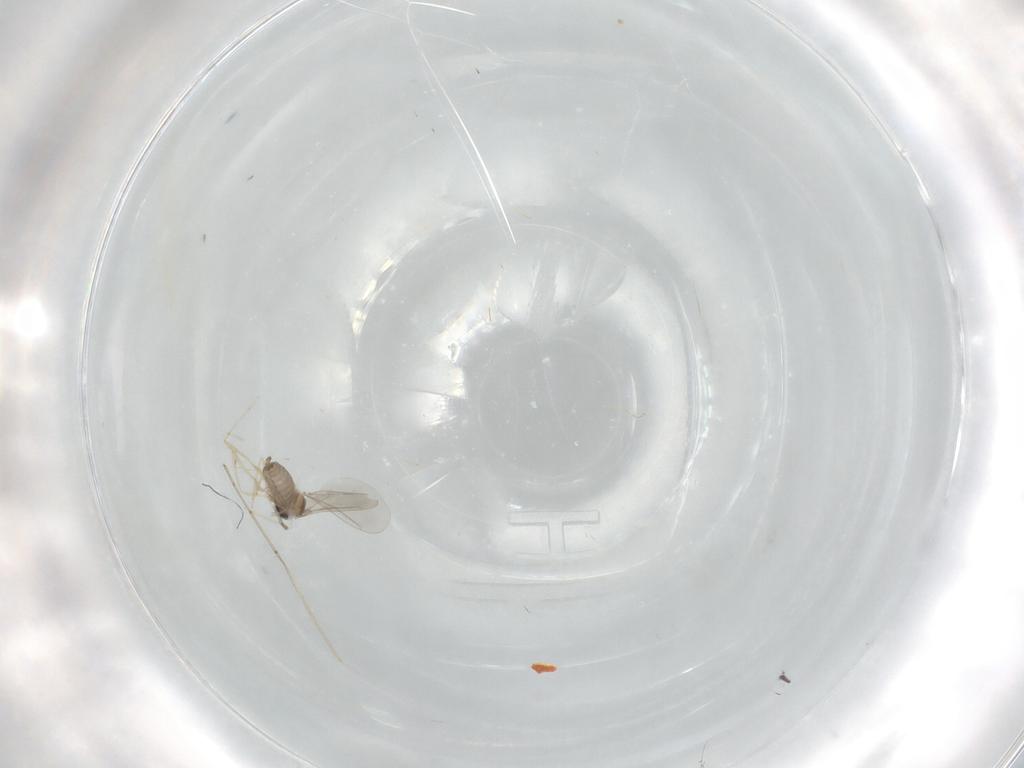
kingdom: Animalia
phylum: Arthropoda
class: Insecta
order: Diptera
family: Cecidomyiidae
